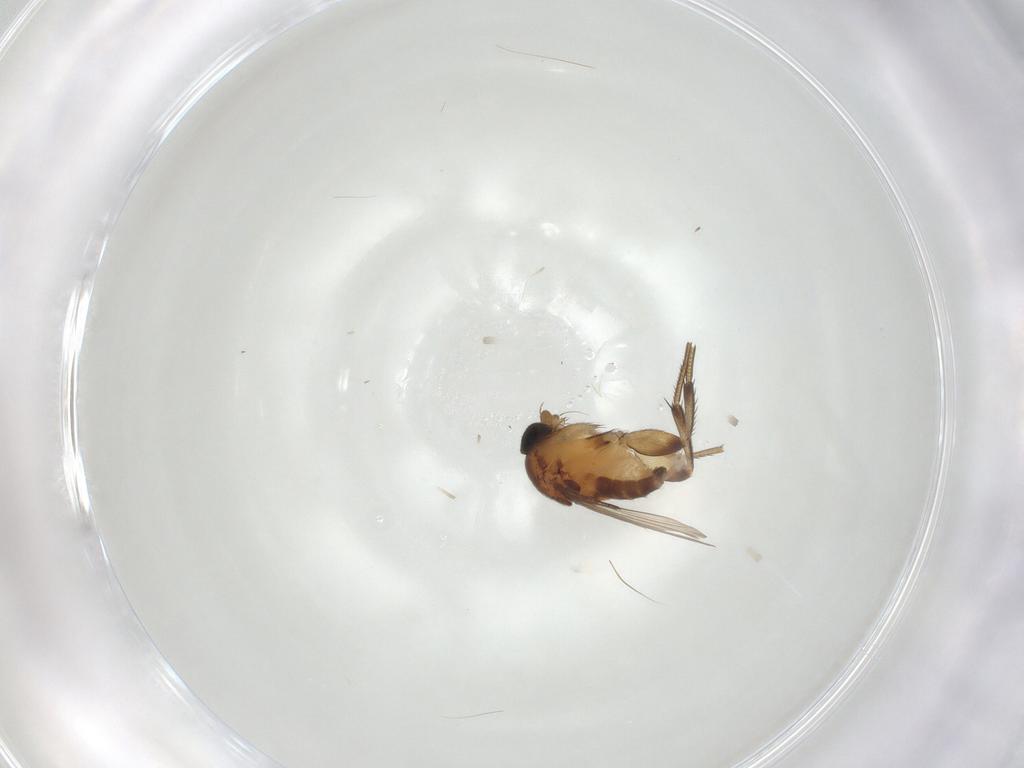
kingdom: Animalia
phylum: Arthropoda
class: Insecta
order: Diptera
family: Phoridae
